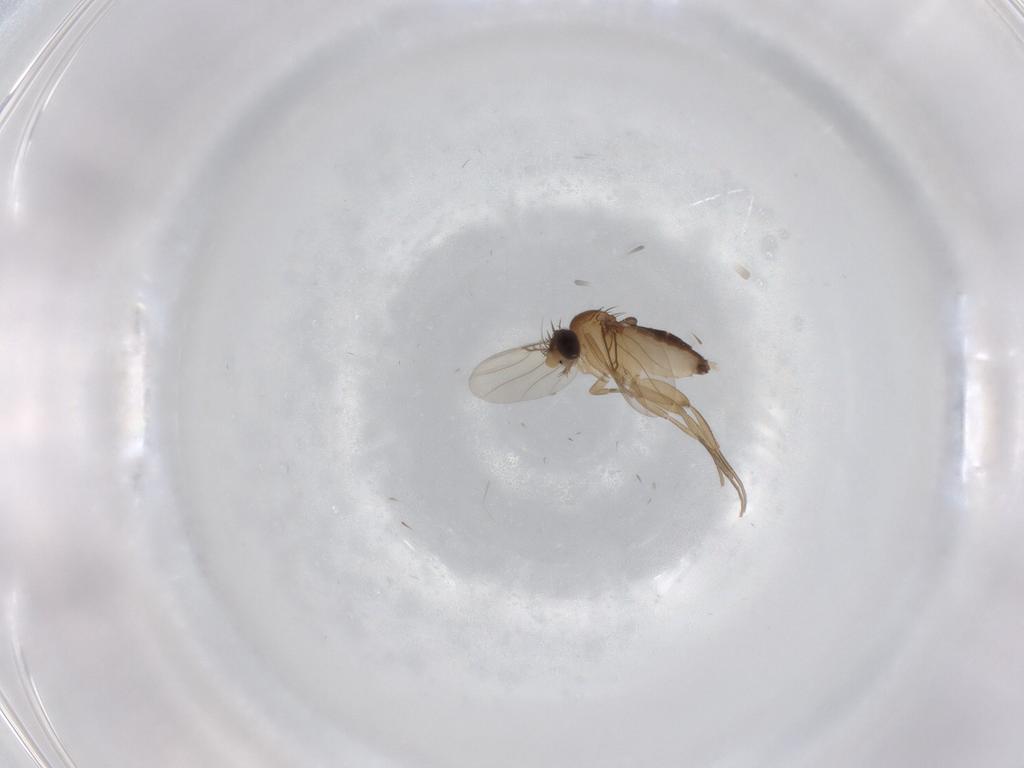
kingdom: Animalia
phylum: Arthropoda
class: Insecta
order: Diptera
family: Phoridae
